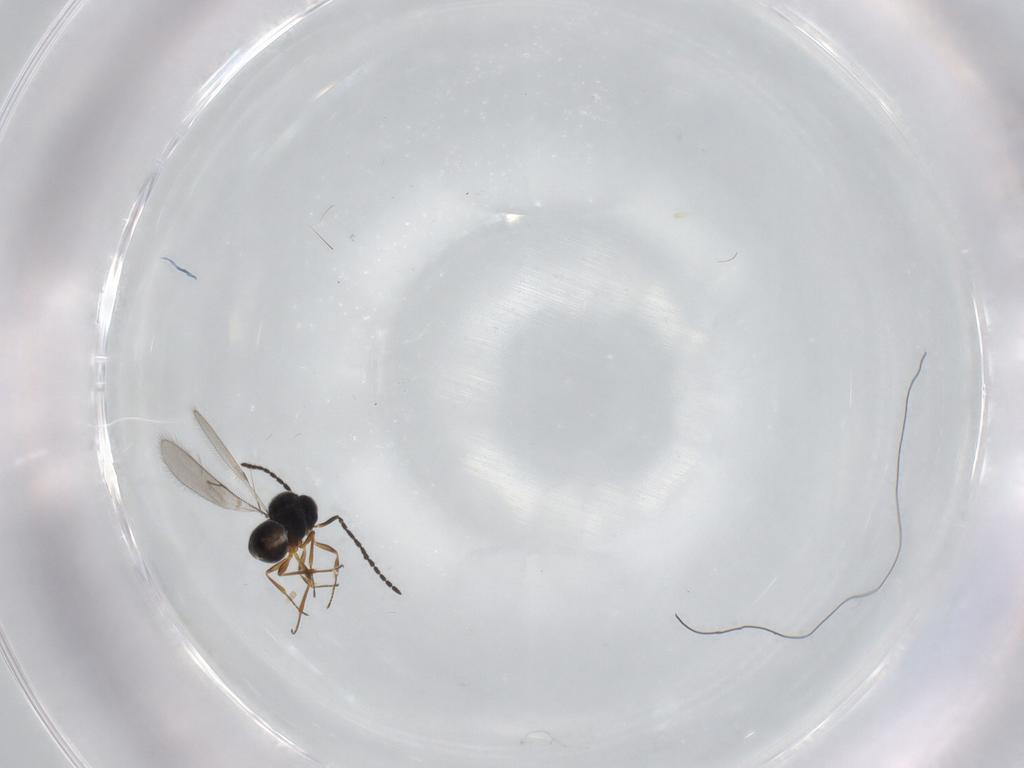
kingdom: Animalia
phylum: Arthropoda
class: Insecta
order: Hymenoptera
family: Scelionidae
